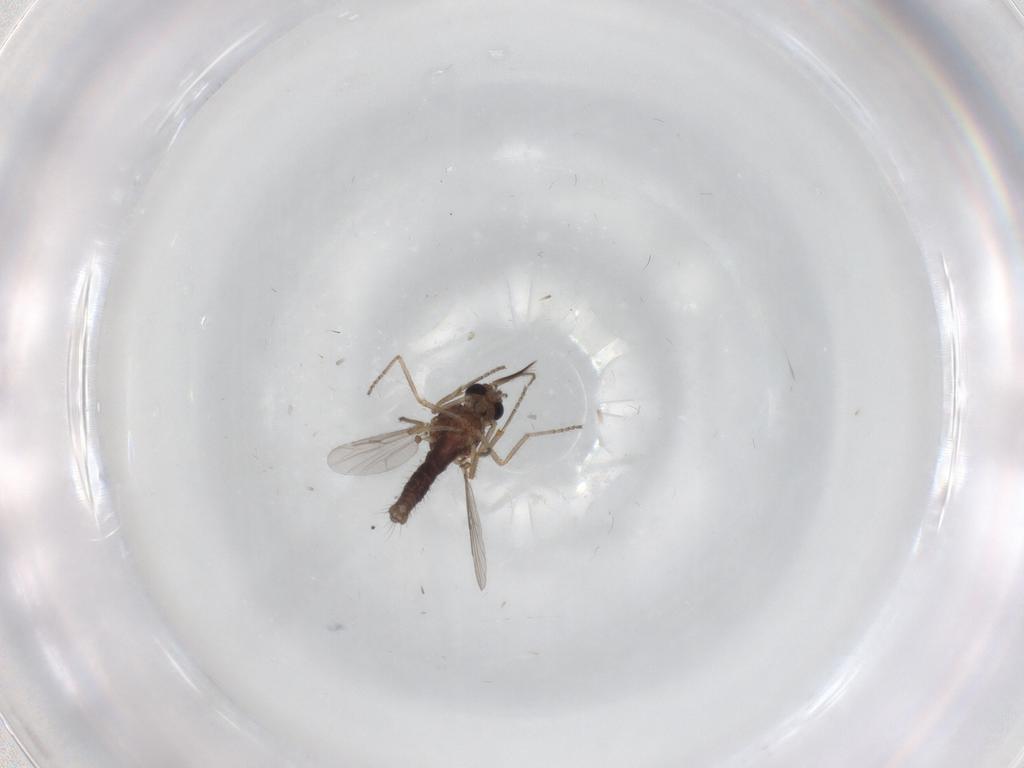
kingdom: Animalia
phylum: Arthropoda
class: Insecta
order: Diptera
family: Ceratopogonidae
